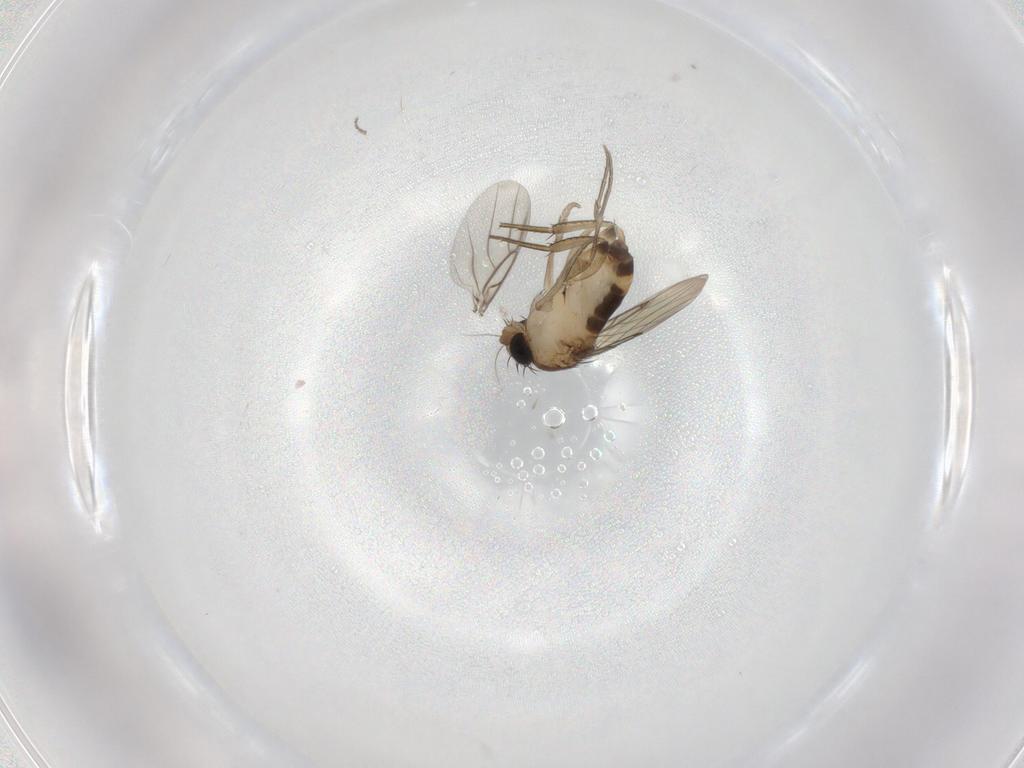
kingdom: Animalia
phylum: Arthropoda
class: Insecta
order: Diptera
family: Phoridae
